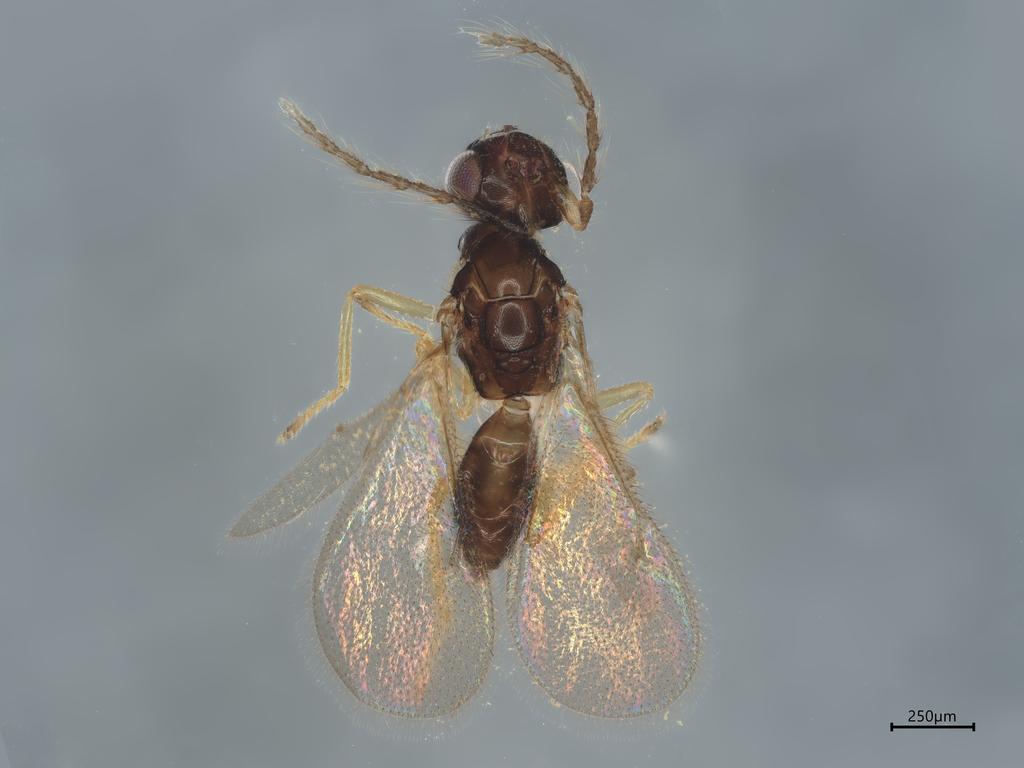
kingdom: Animalia
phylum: Arthropoda
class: Insecta
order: Hymenoptera
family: Eulophidae
